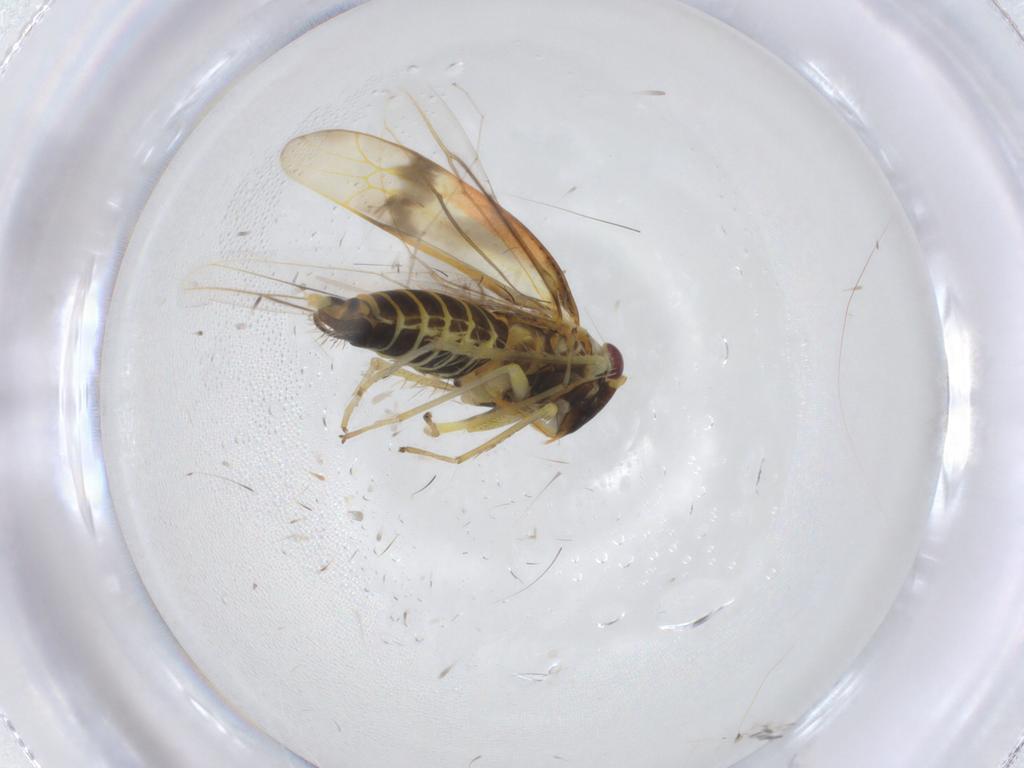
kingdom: Animalia
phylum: Arthropoda
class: Insecta
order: Hemiptera
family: Cicadellidae
